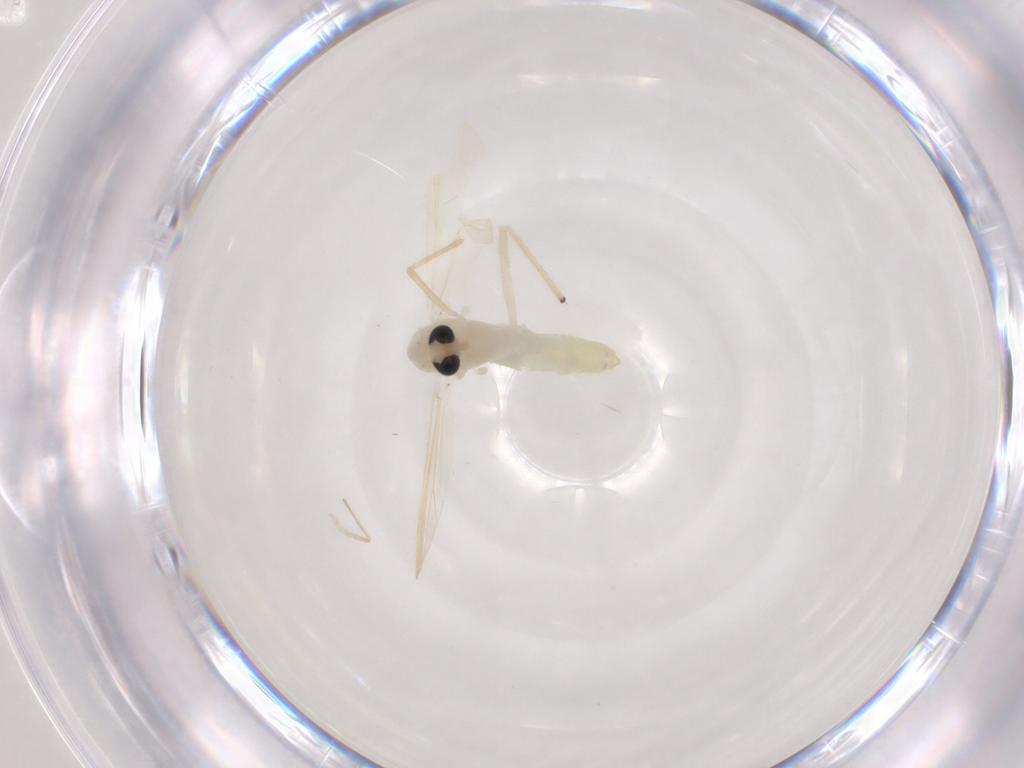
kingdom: Animalia
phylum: Arthropoda
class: Insecta
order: Diptera
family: Chironomidae
